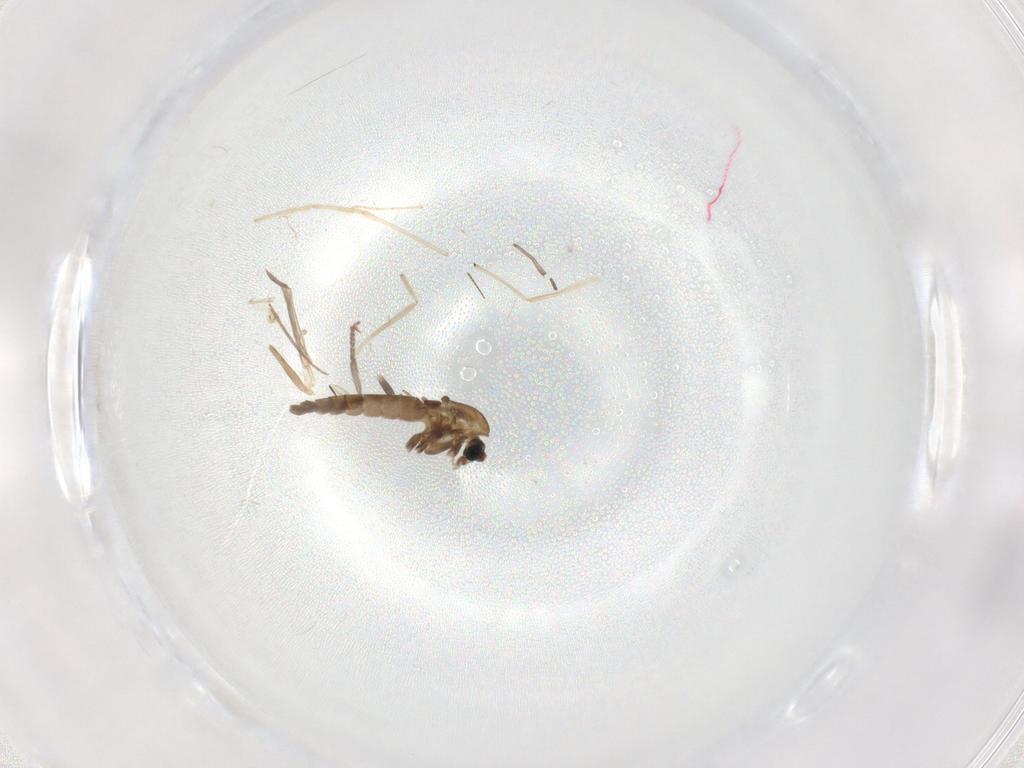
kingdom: Animalia
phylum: Arthropoda
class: Insecta
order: Diptera
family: Psychodidae
